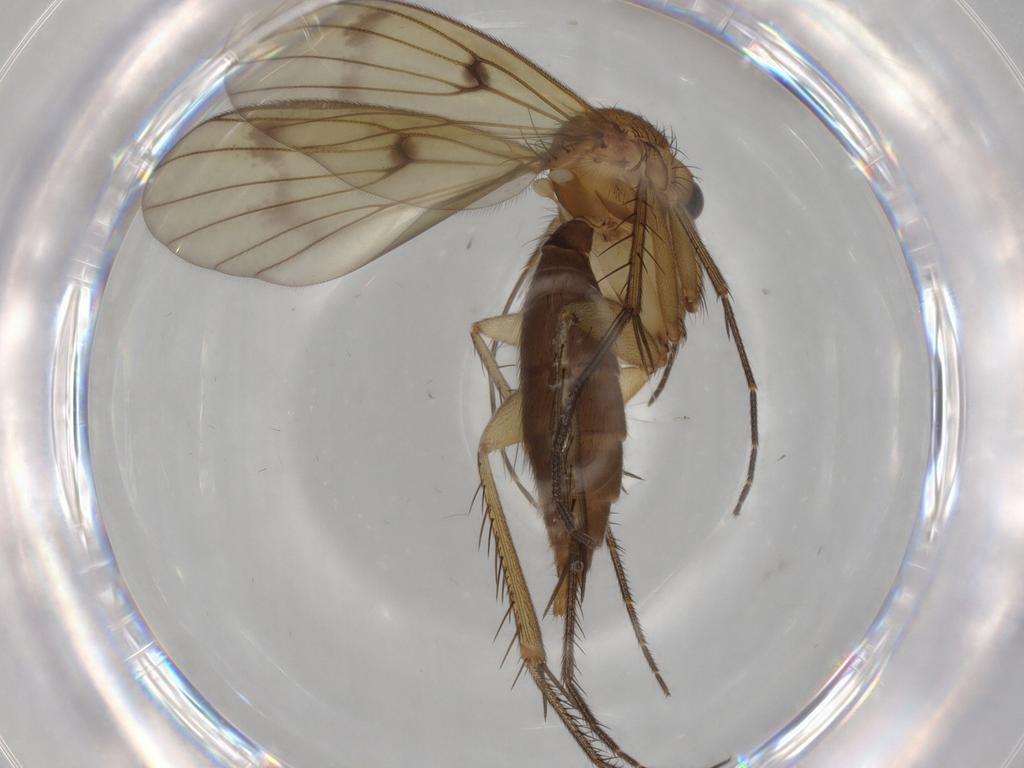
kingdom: Animalia
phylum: Arthropoda
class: Insecta
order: Diptera
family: Mycetophilidae
